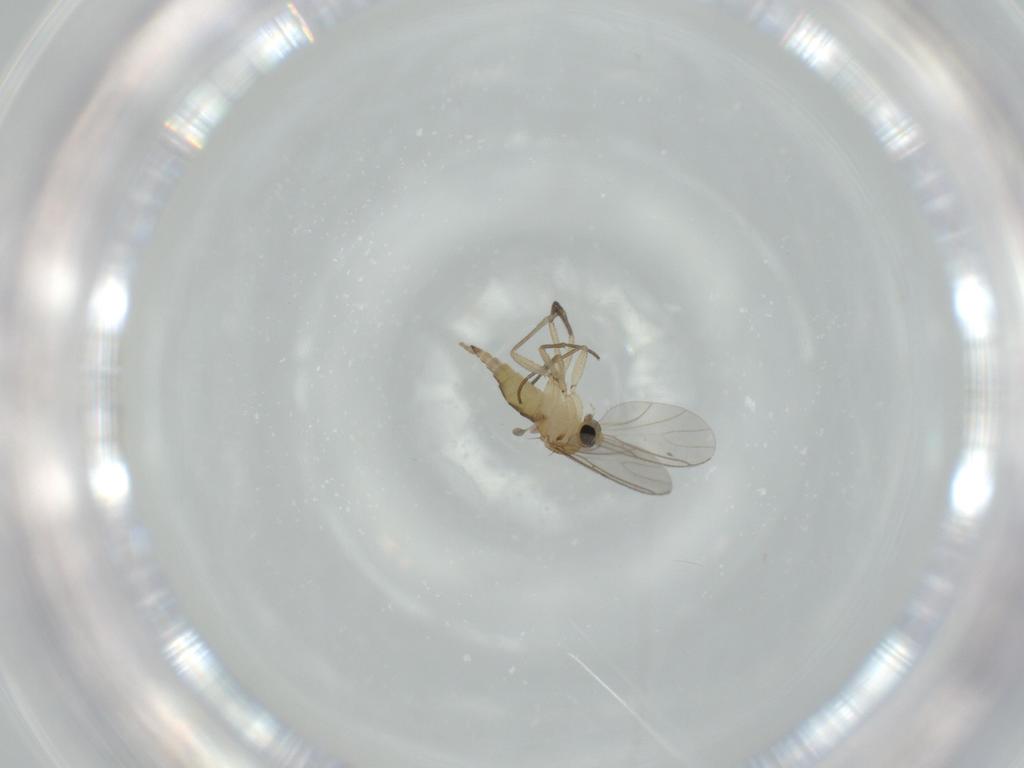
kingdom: Animalia
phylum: Arthropoda
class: Insecta
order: Diptera
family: Sciaridae
